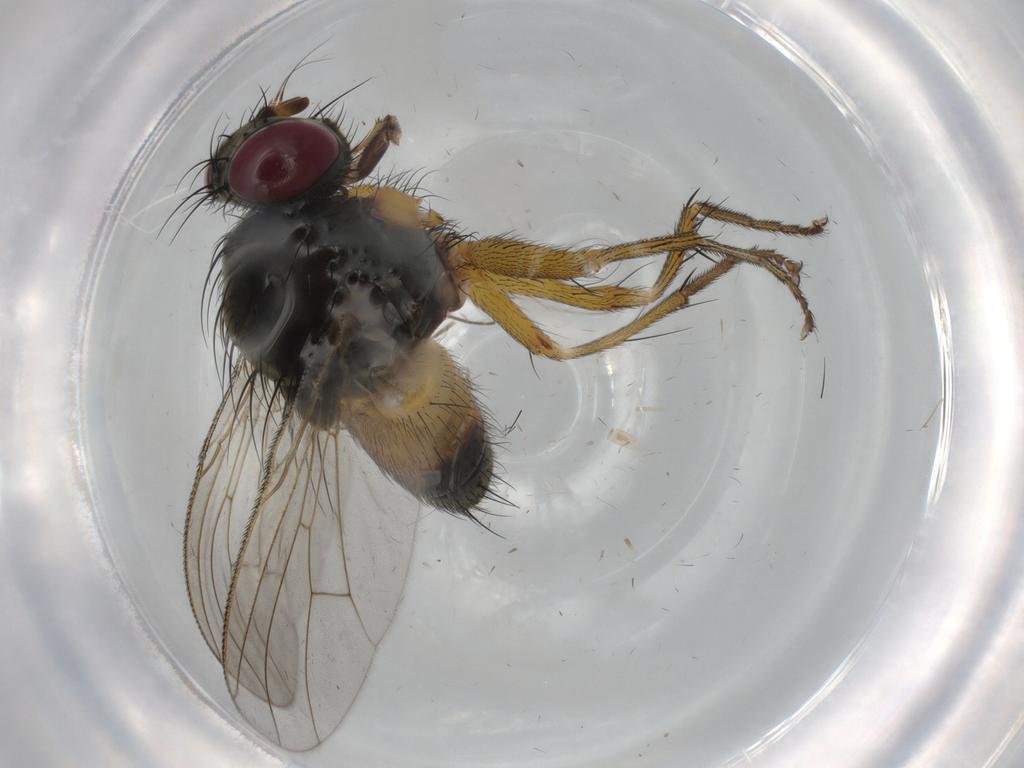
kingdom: Animalia
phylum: Arthropoda
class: Insecta
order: Diptera
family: Muscidae
